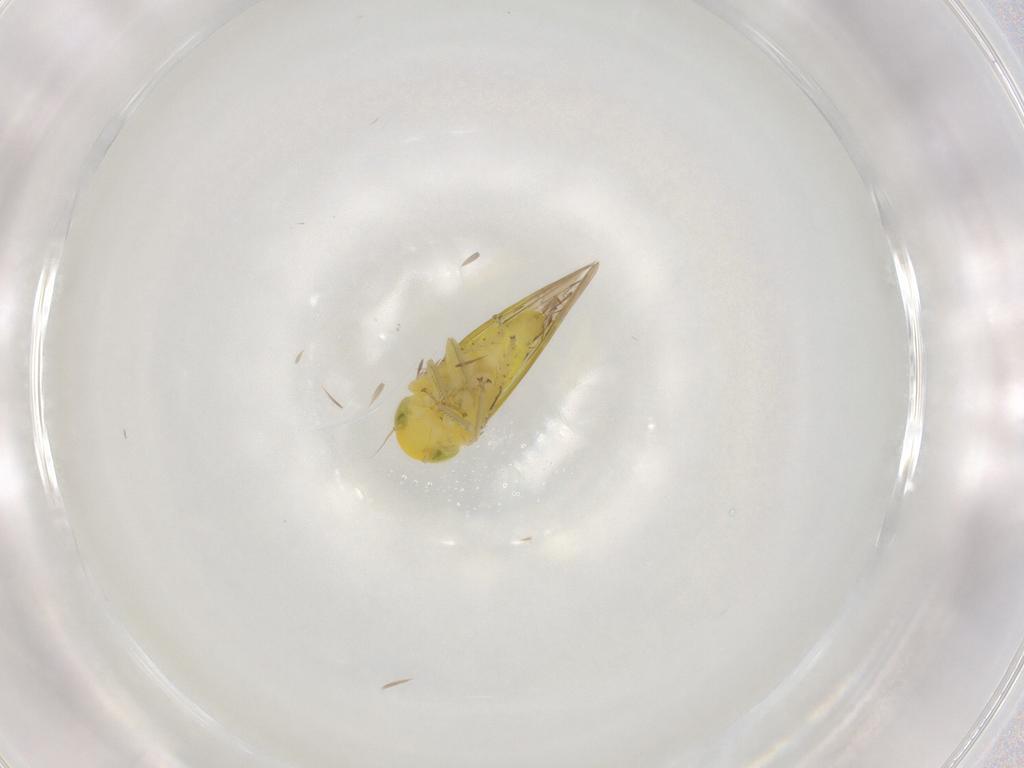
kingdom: Animalia
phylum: Arthropoda
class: Insecta
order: Hemiptera
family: Cicadellidae
